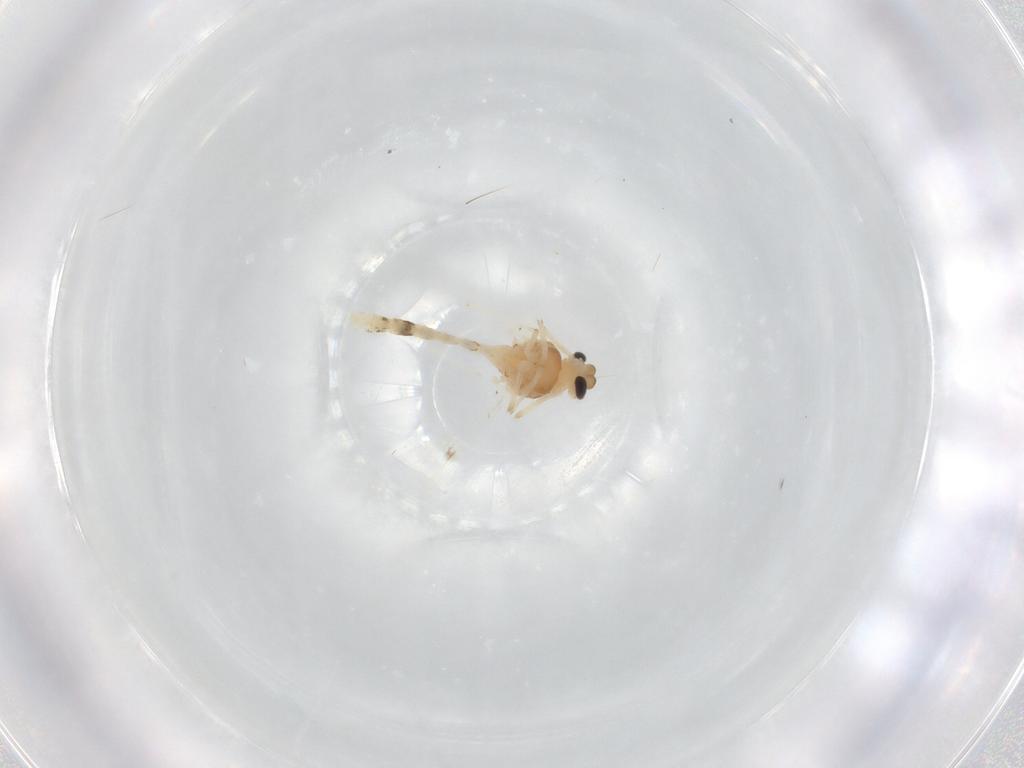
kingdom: Animalia
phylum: Arthropoda
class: Insecta
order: Diptera
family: Chironomidae
